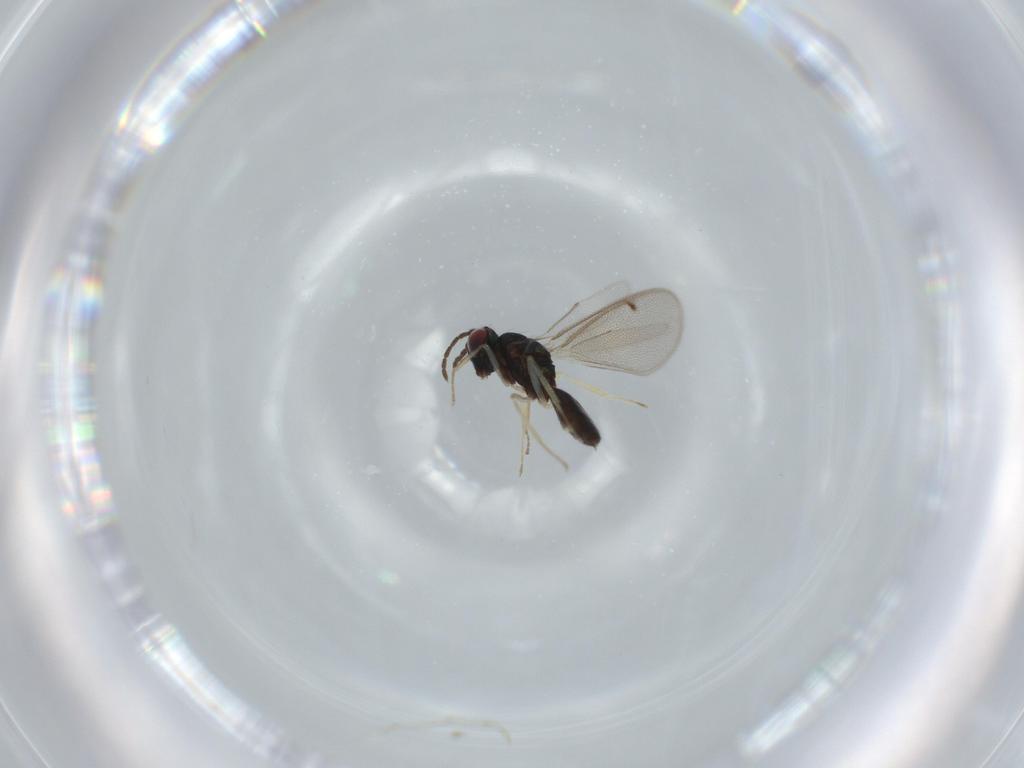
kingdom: Animalia
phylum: Arthropoda
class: Insecta
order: Hymenoptera
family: Eulophidae
